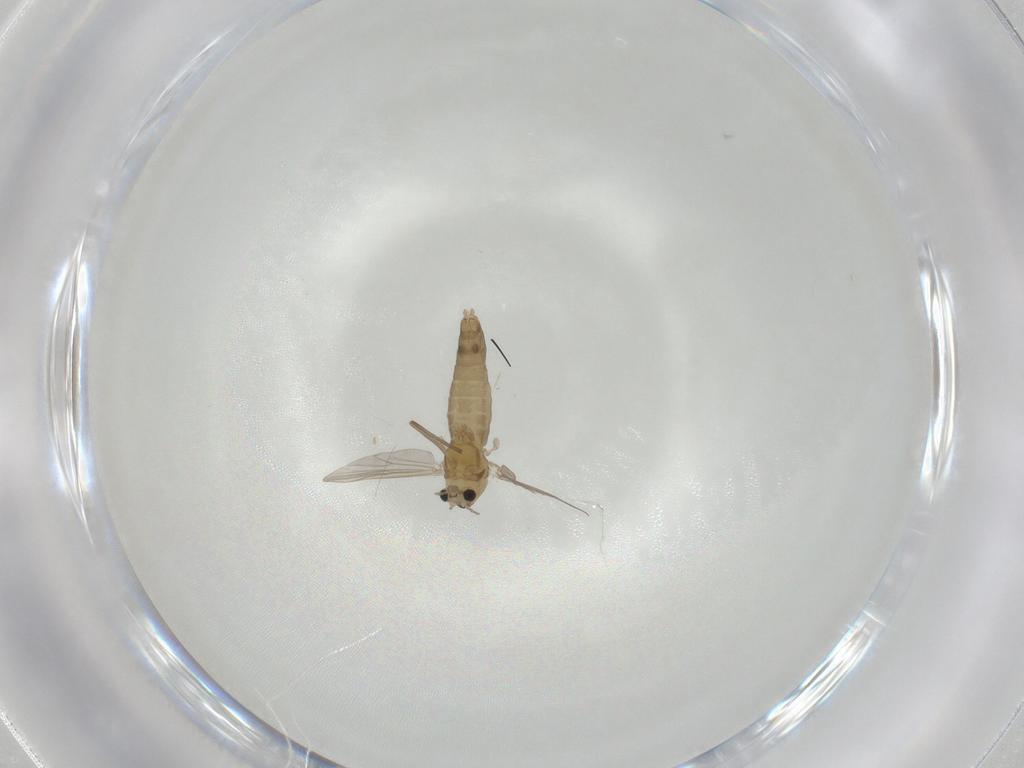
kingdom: Animalia
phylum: Arthropoda
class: Insecta
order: Diptera
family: Chironomidae
